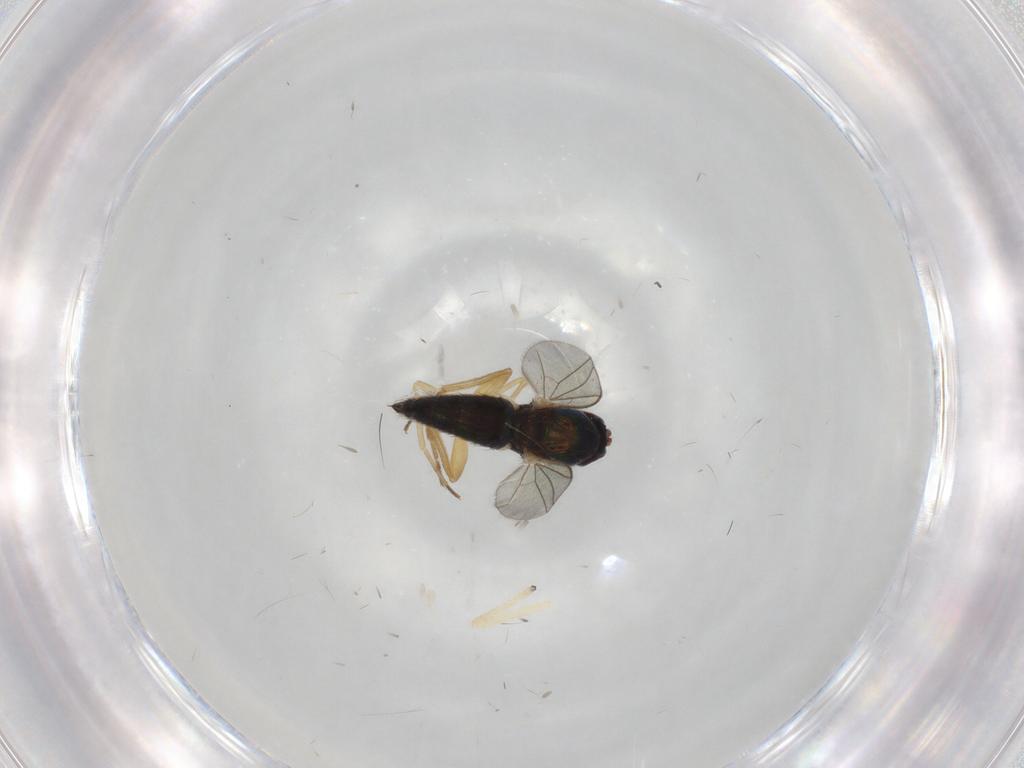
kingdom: Animalia
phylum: Arthropoda
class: Insecta
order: Diptera
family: Dolichopodidae
